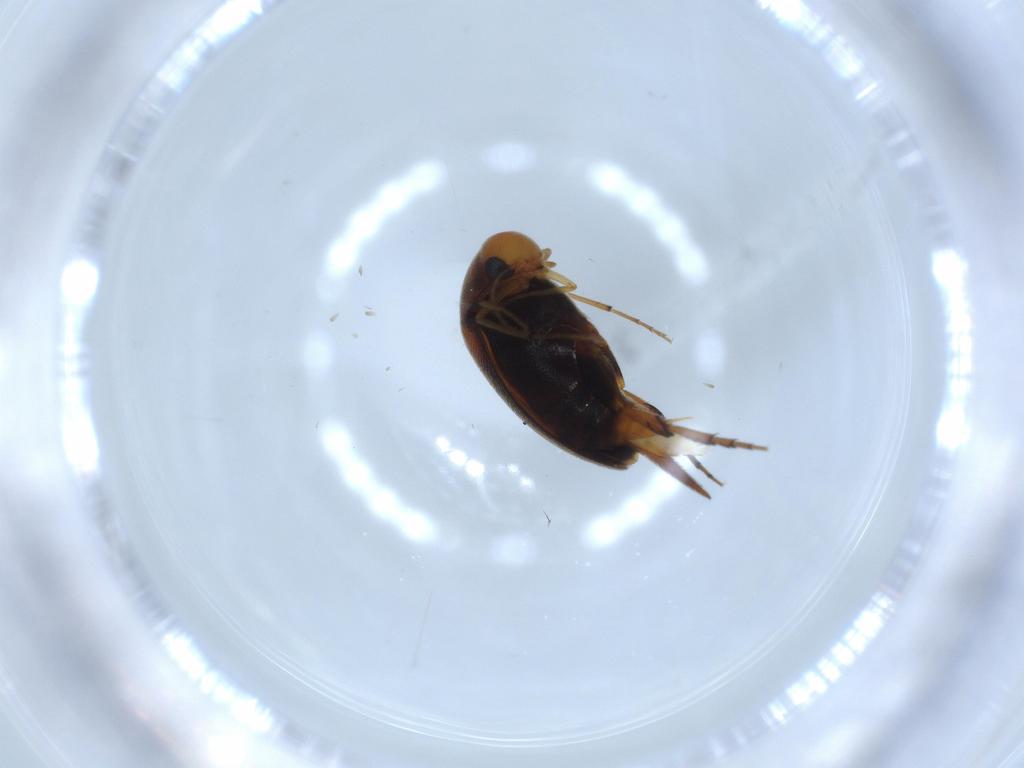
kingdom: Animalia
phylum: Arthropoda
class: Insecta
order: Coleoptera
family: Mordellidae
